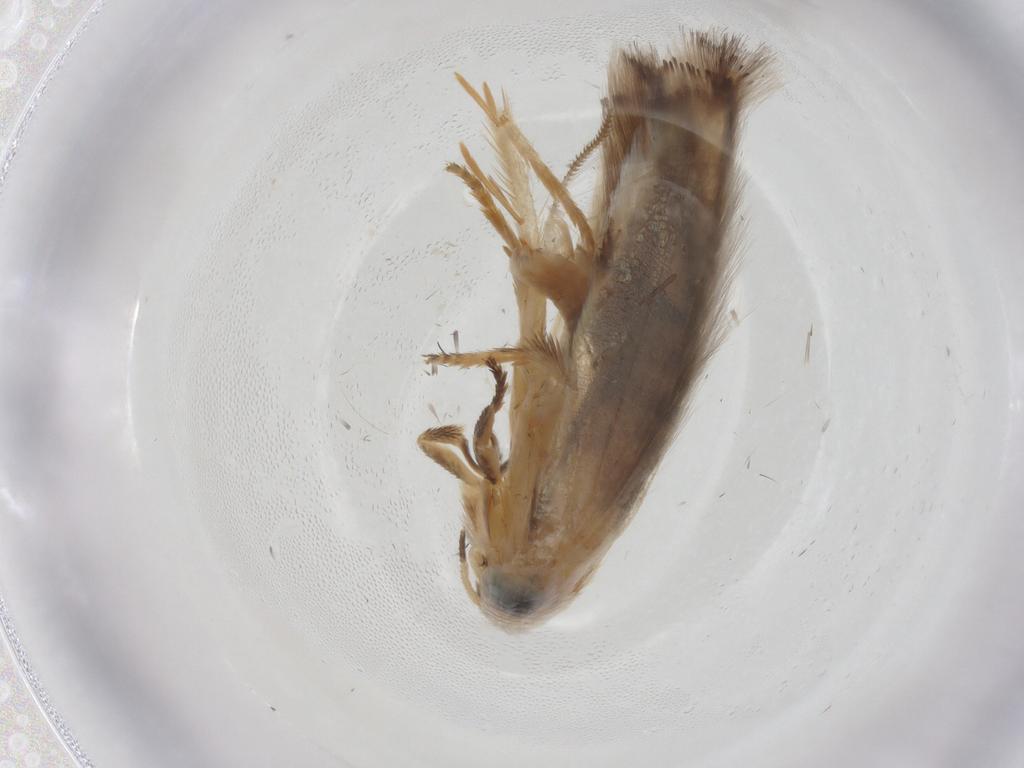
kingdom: Animalia
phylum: Arthropoda
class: Insecta
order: Lepidoptera
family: Opostegidae
